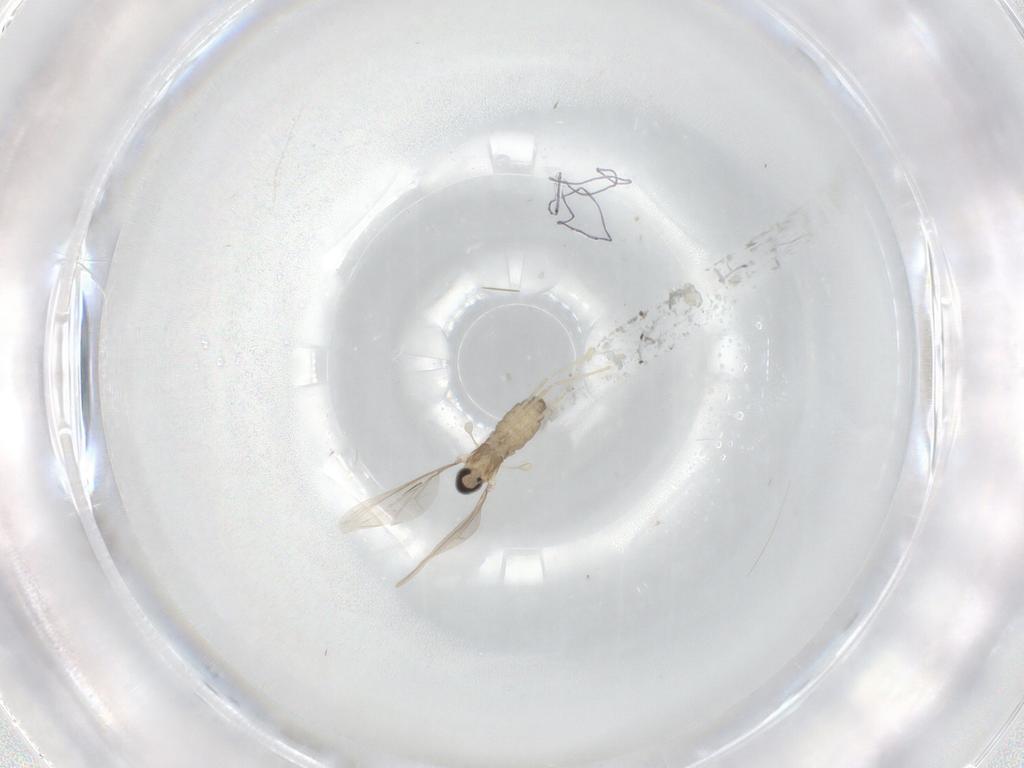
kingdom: Animalia
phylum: Arthropoda
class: Insecta
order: Diptera
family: Cecidomyiidae
